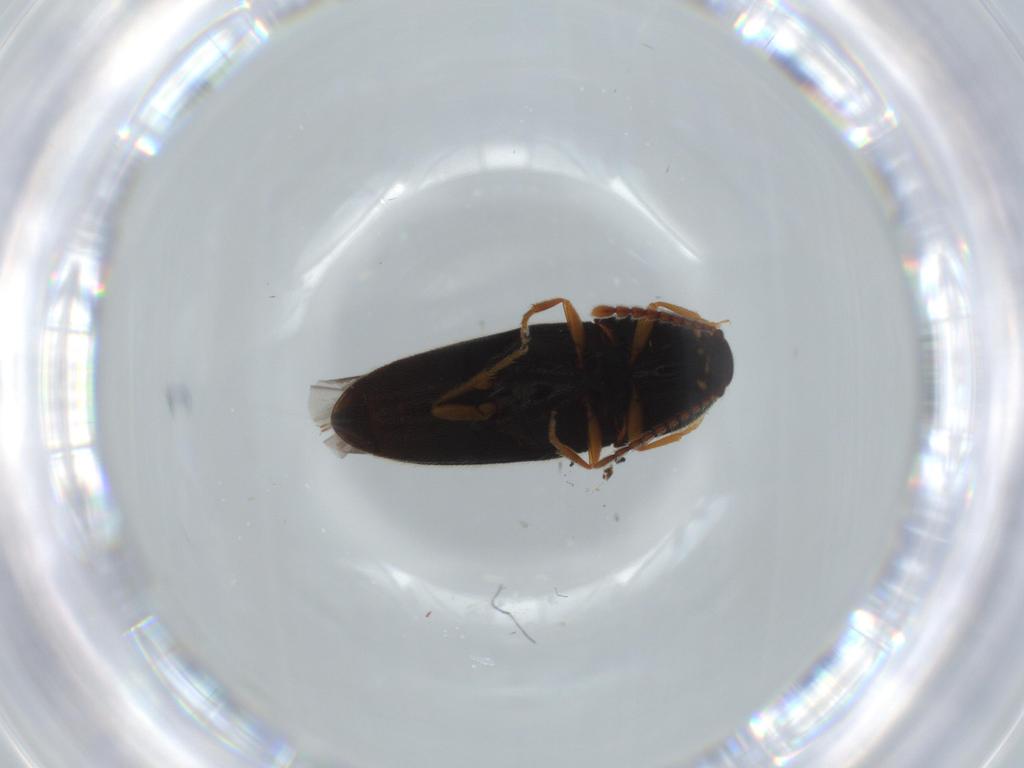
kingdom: Animalia
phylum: Arthropoda
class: Insecta
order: Coleoptera
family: Elateridae
